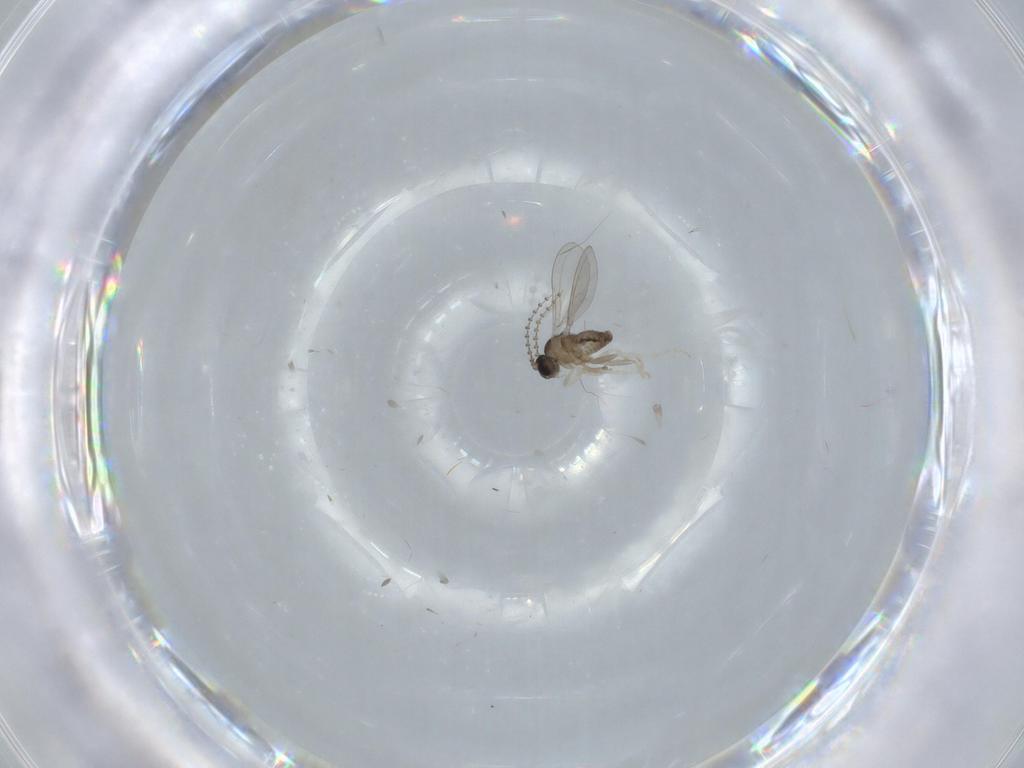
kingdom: Animalia
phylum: Arthropoda
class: Insecta
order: Diptera
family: Cecidomyiidae
